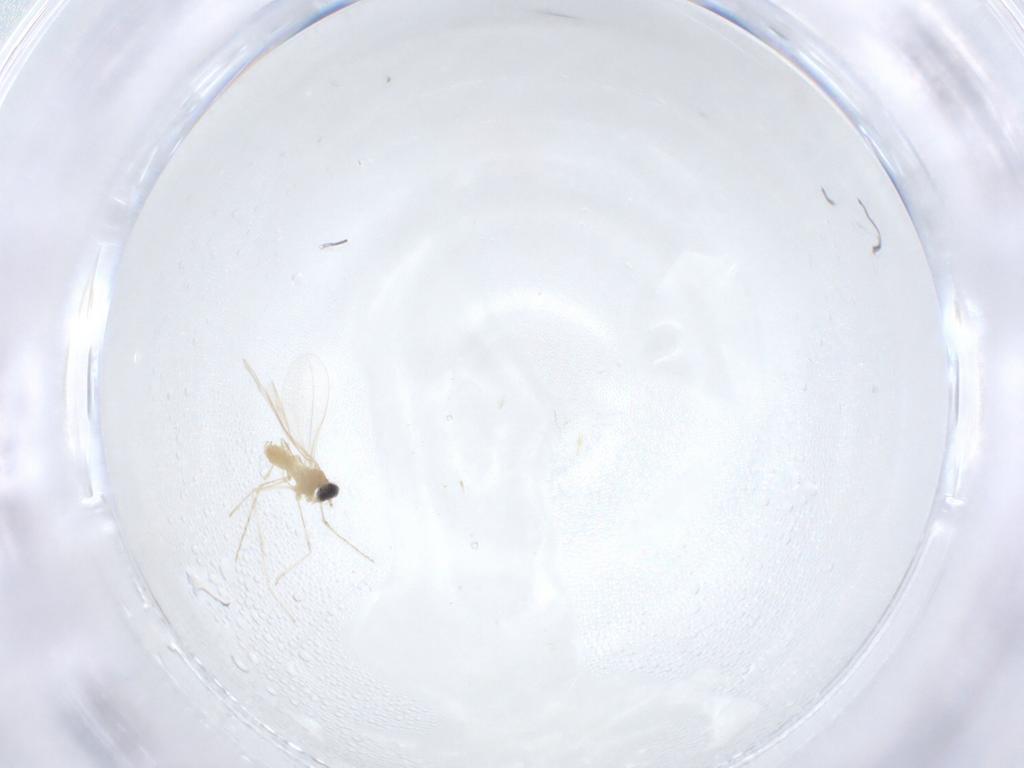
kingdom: Animalia
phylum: Arthropoda
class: Insecta
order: Diptera
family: Cecidomyiidae
